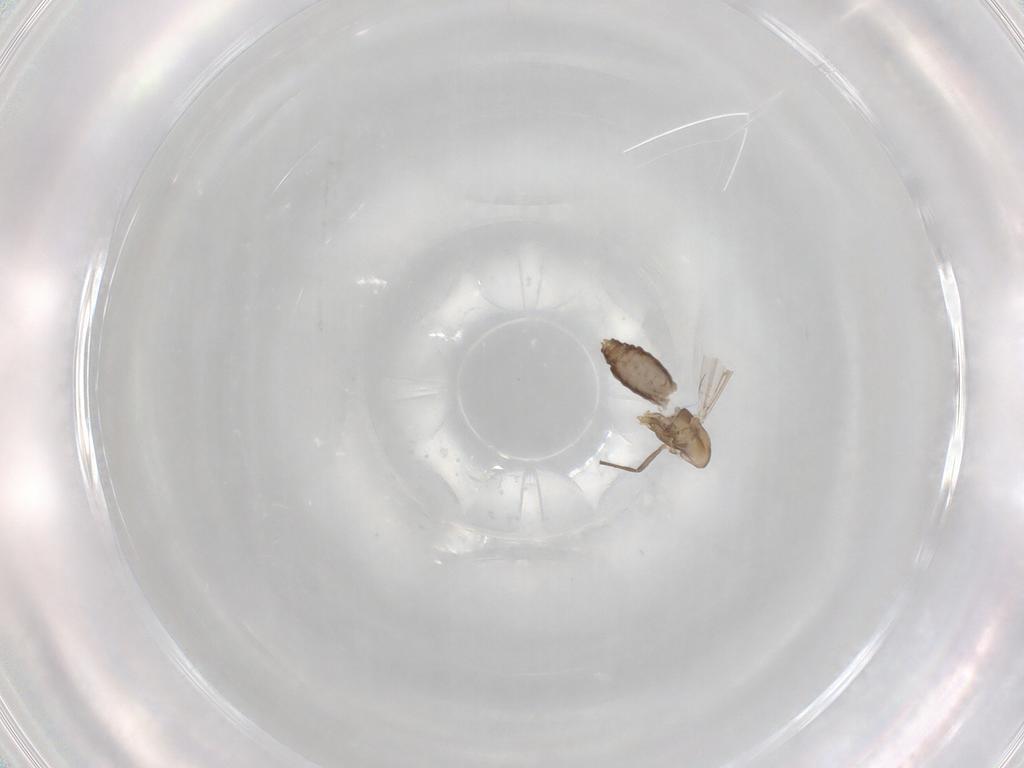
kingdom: Animalia
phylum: Arthropoda
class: Insecta
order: Diptera
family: Chironomidae
